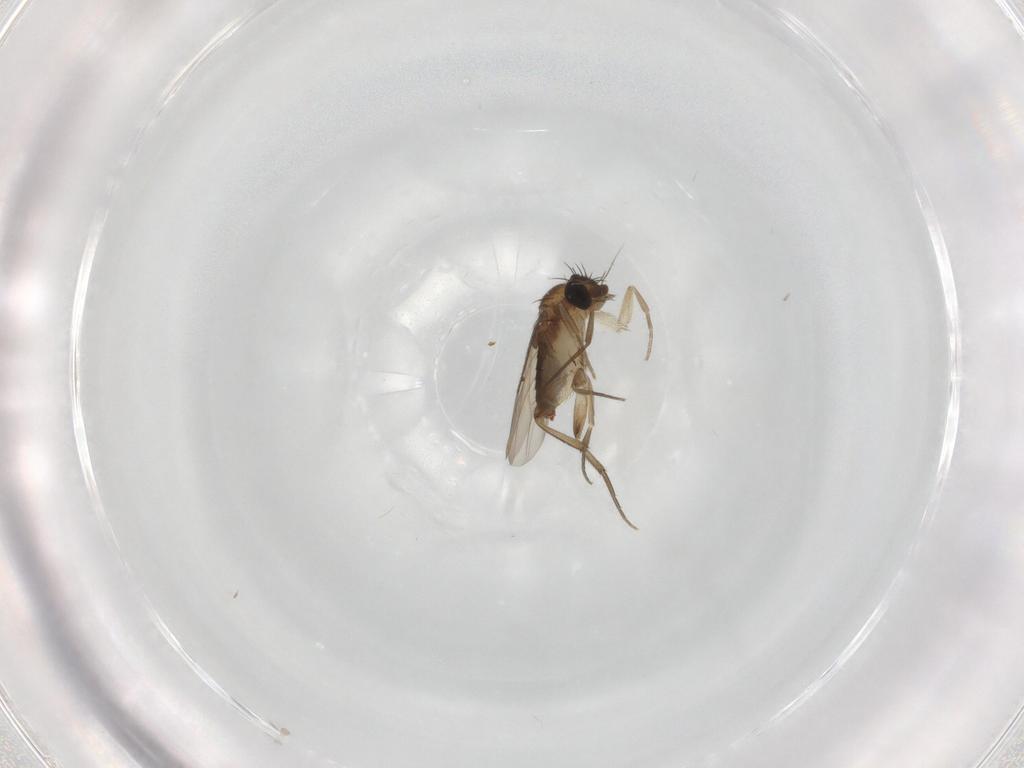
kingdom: Animalia
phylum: Arthropoda
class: Insecta
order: Diptera
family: Phoridae
